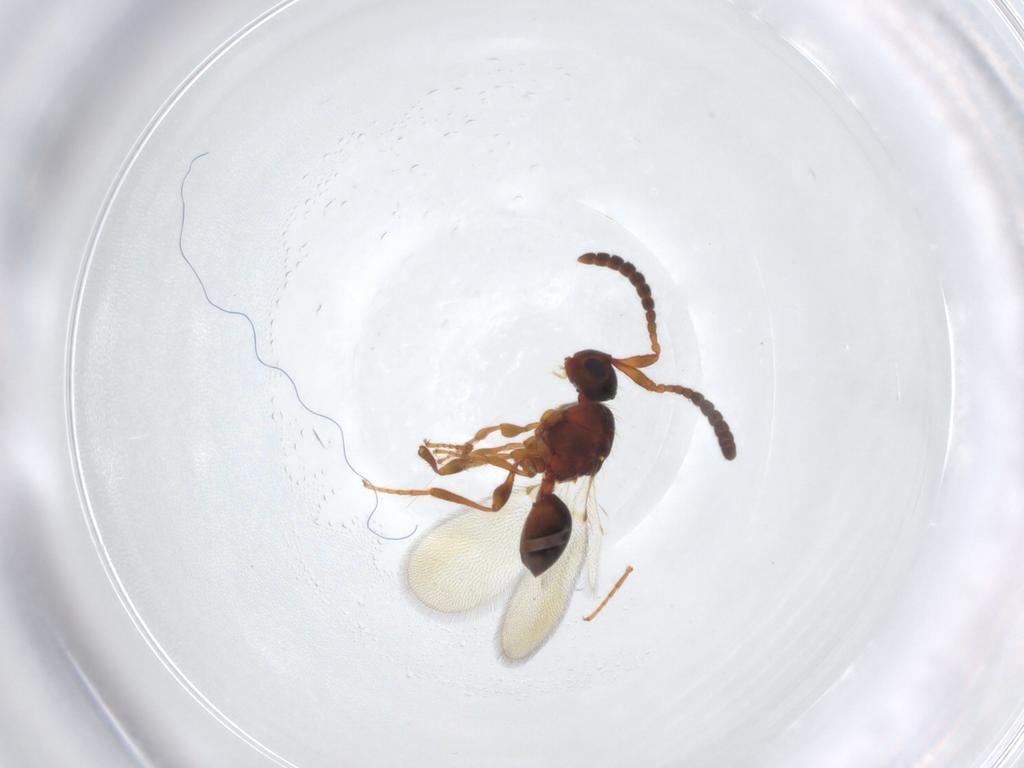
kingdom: Animalia
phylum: Arthropoda
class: Insecta
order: Hymenoptera
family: Diapriidae
